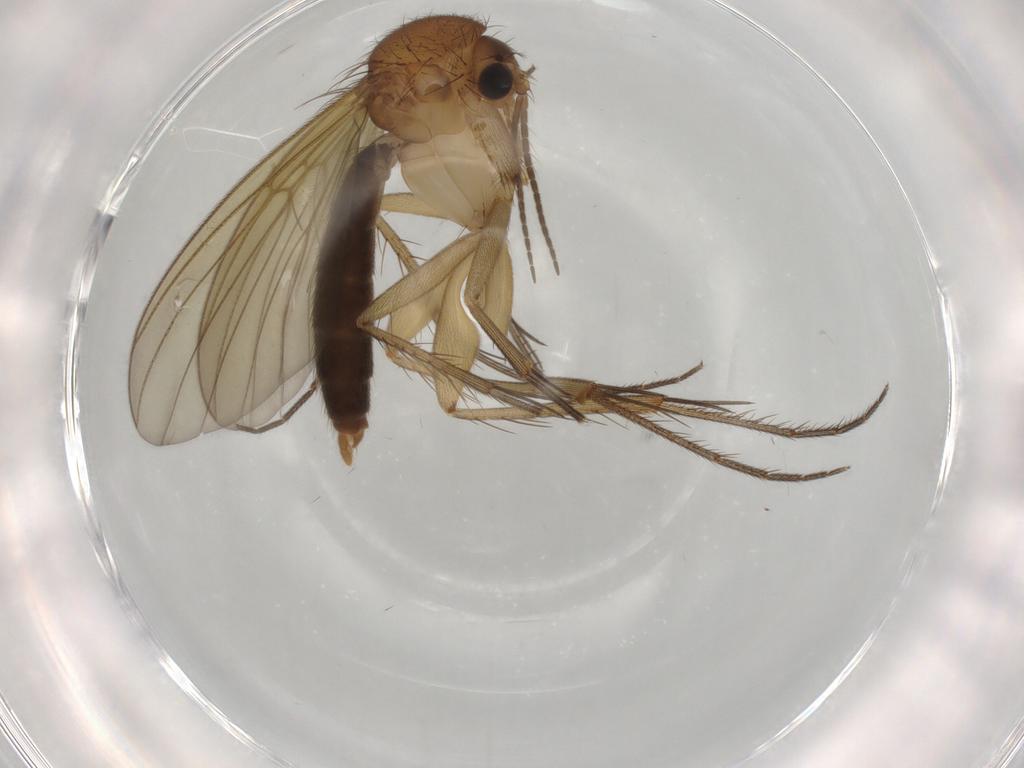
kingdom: Animalia
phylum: Arthropoda
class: Insecta
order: Diptera
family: Mycetophilidae
